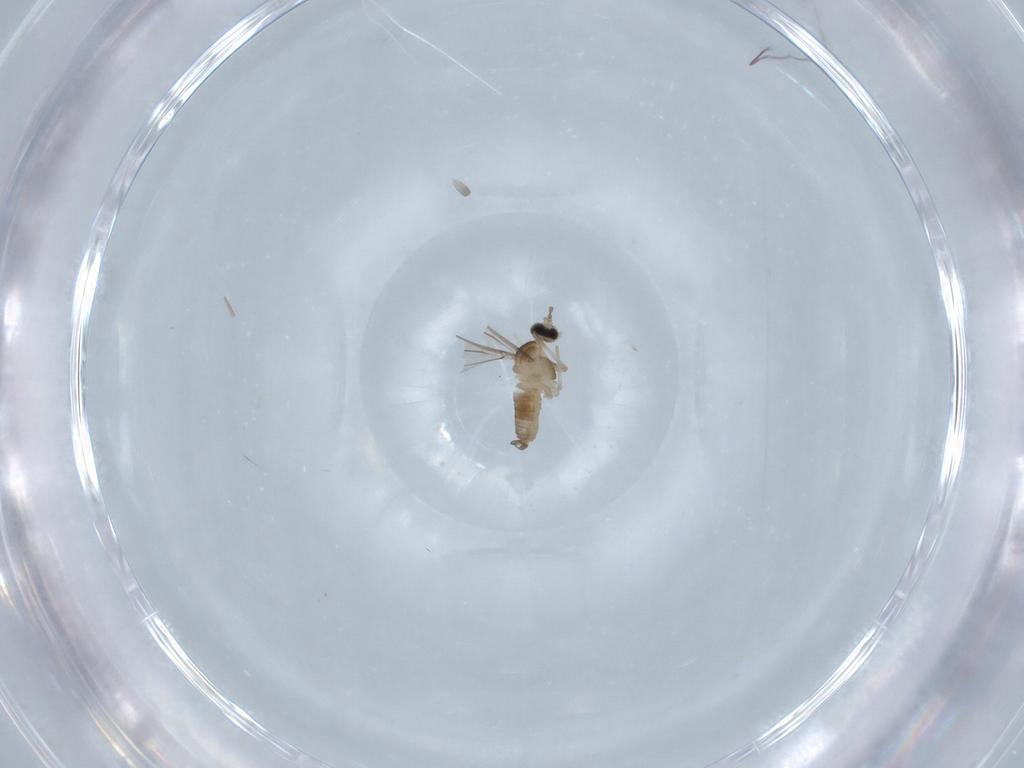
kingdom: Animalia
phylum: Arthropoda
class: Insecta
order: Diptera
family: Cecidomyiidae
